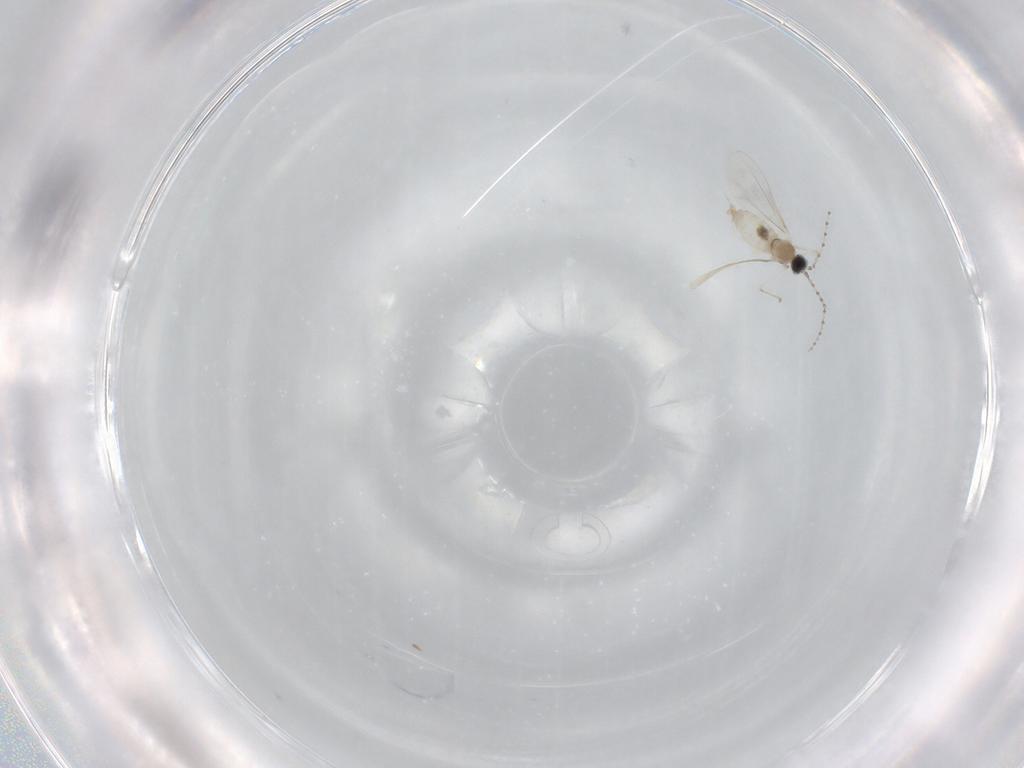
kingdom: Animalia
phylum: Arthropoda
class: Insecta
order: Diptera
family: Cecidomyiidae
